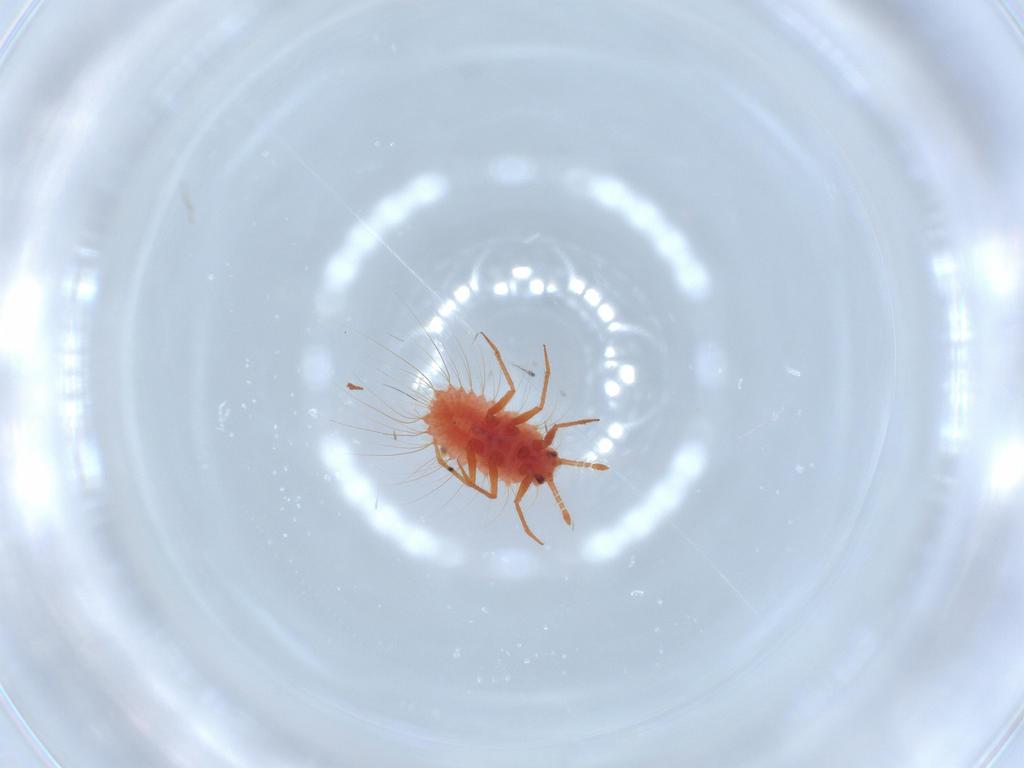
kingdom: Animalia
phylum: Arthropoda
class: Insecta
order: Hemiptera
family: Monophlebidae
